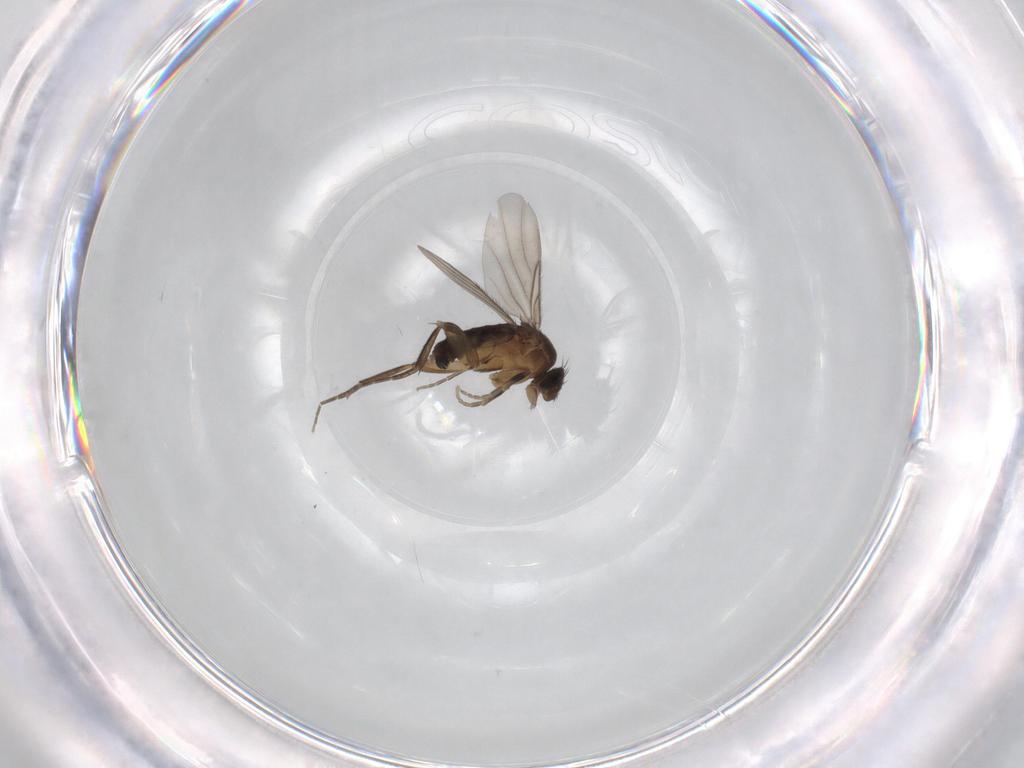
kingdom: Animalia
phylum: Arthropoda
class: Insecta
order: Diptera
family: Phoridae
